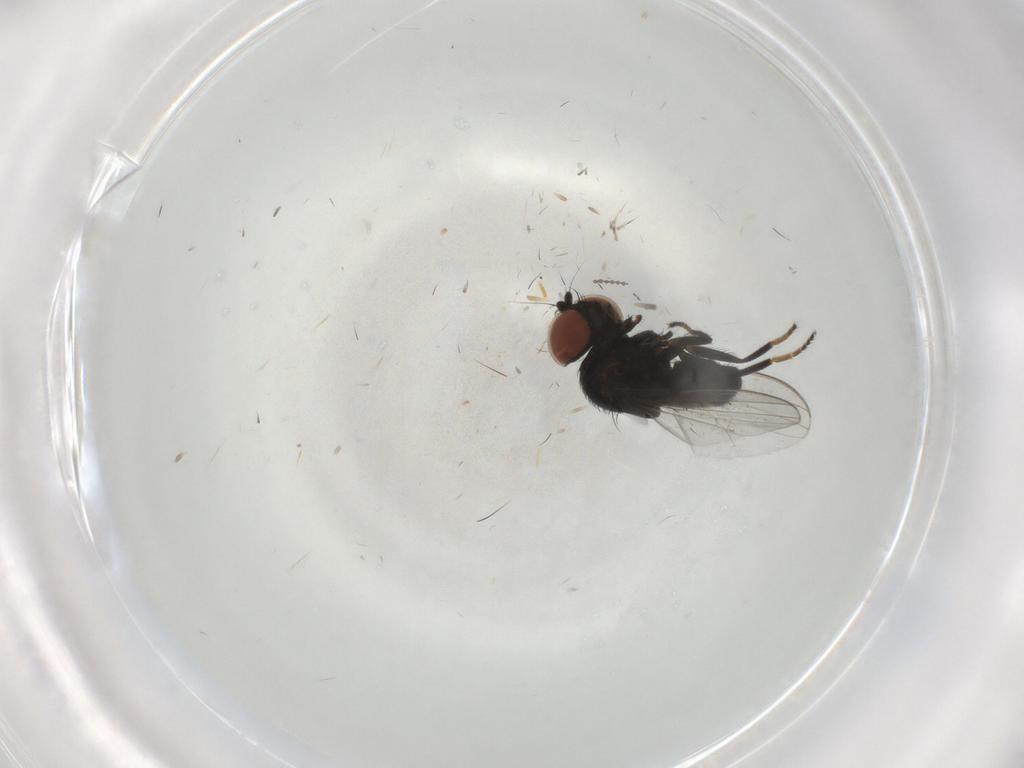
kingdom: Animalia
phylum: Arthropoda
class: Insecta
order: Diptera
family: Milichiidae
